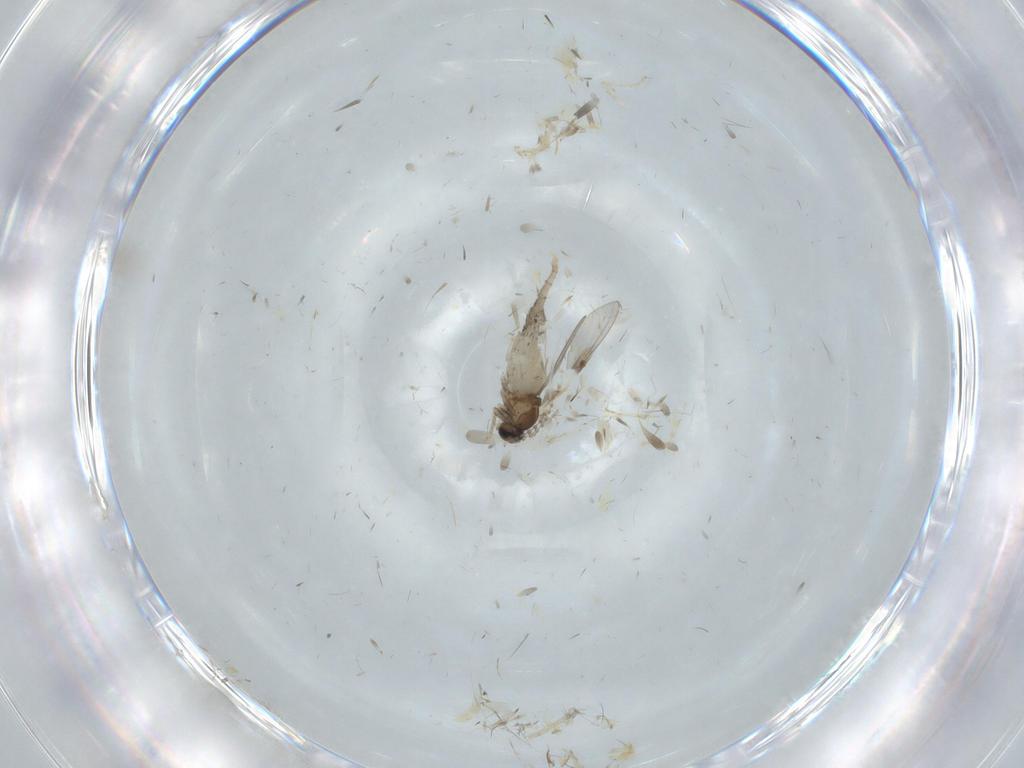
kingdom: Animalia
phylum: Arthropoda
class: Insecta
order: Diptera
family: Cecidomyiidae
